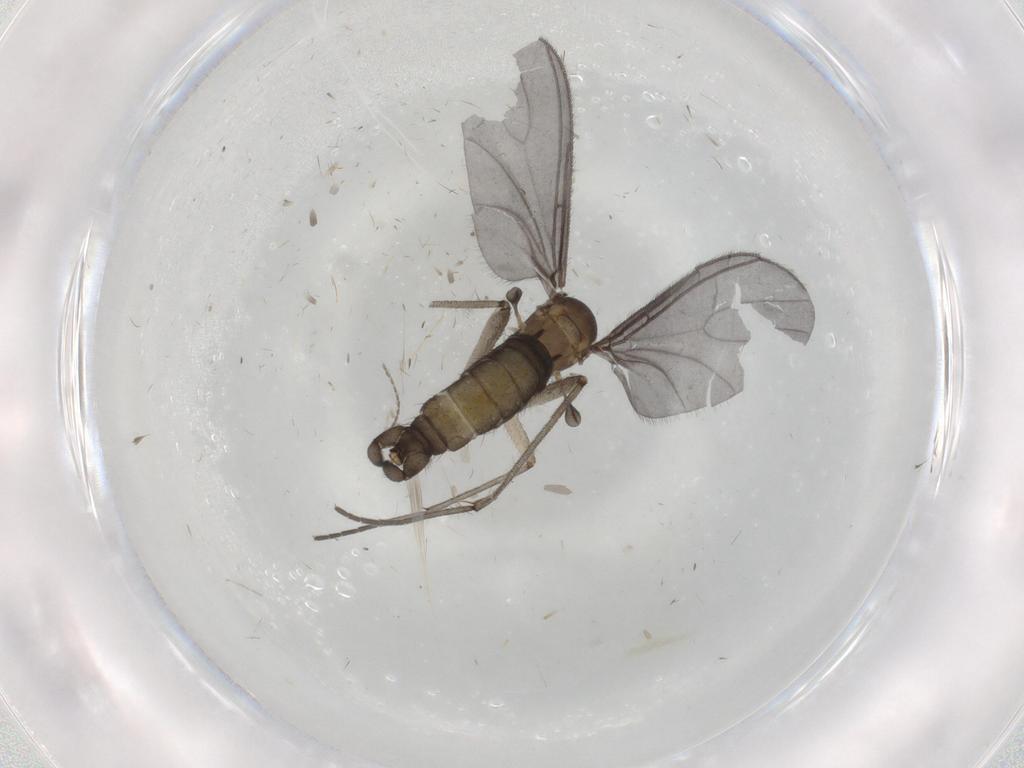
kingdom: Animalia
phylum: Arthropoda
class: Insecta
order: Diptera
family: Sciaridae
